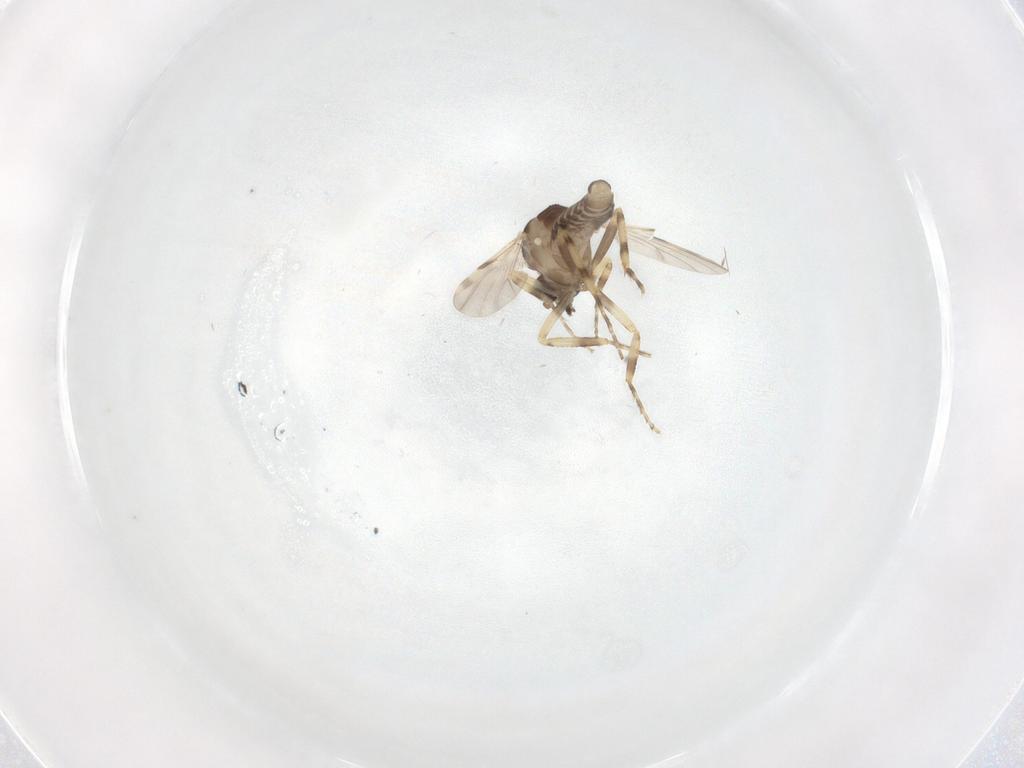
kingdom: Animalia
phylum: Arthropoda
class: Insecta
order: Diptera
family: Ceratopogonidae
